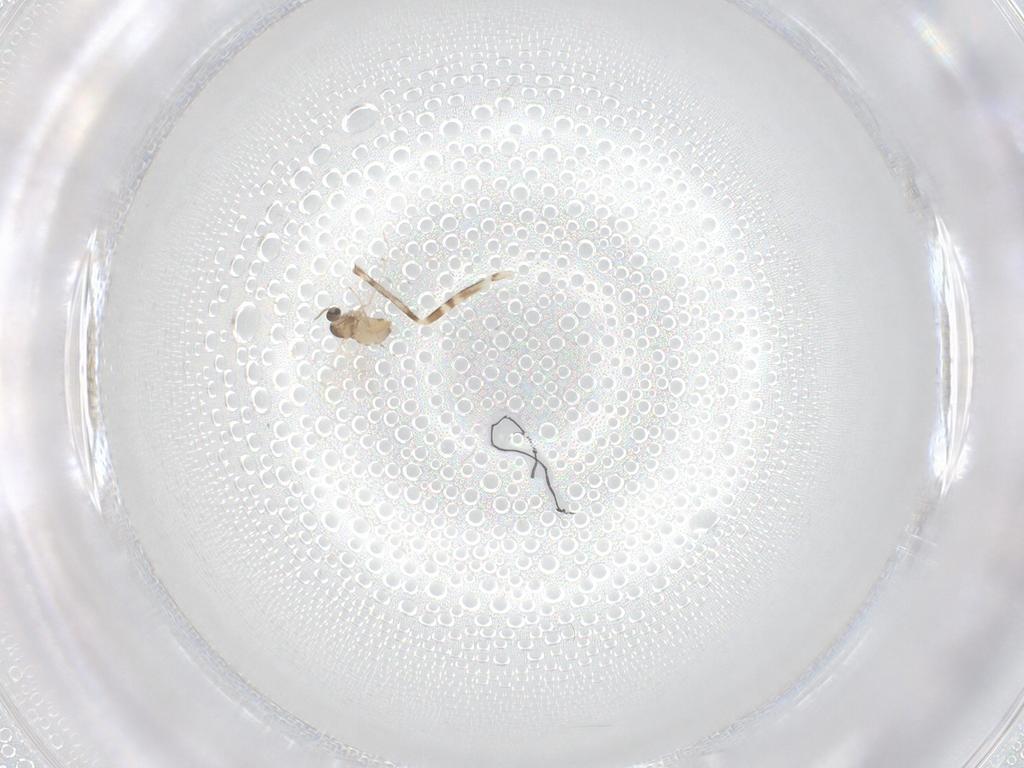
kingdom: Animalia
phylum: Arthropoda
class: Insecta
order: Diptera
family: Cecidomyiidae
